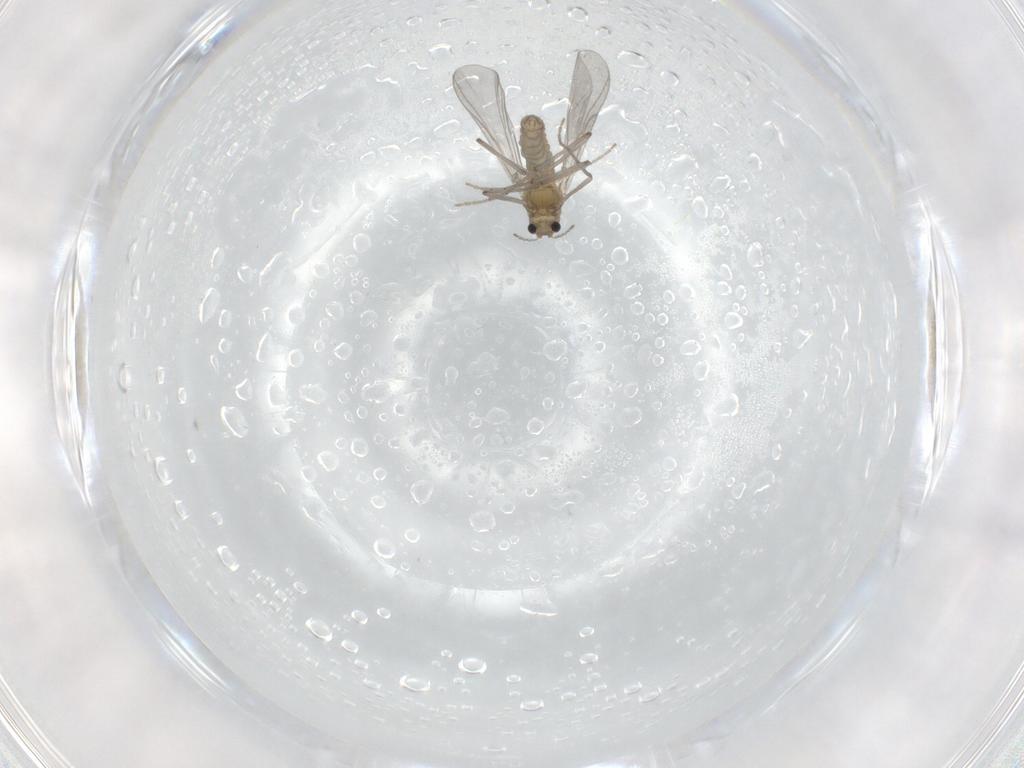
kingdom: Animalia
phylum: Arthropoda
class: Insecta
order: Diptera
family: Chironomidae
